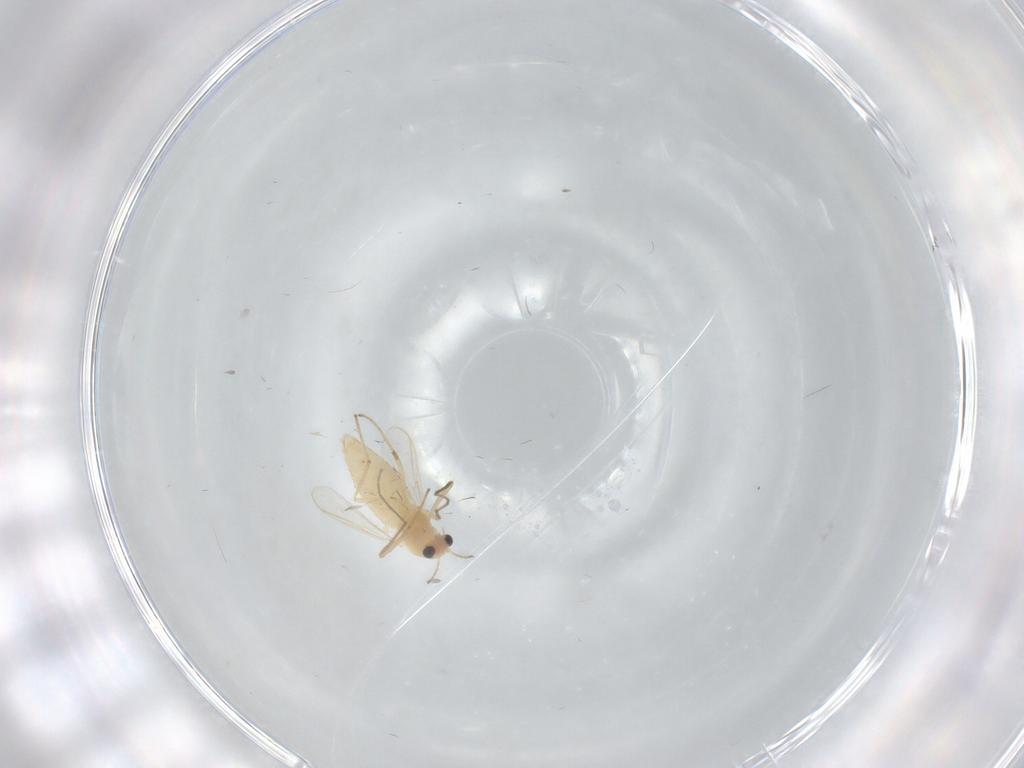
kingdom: Animalia
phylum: Arthropoda
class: Insecta
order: Diptera
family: Chironomidae
